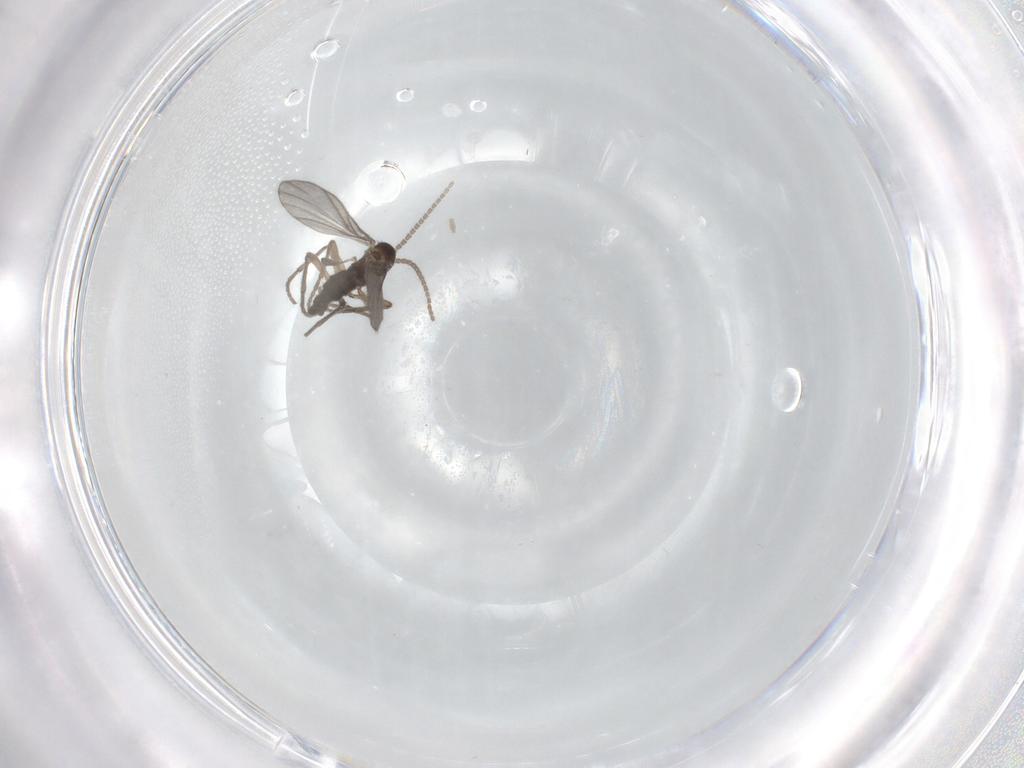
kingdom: Animalia
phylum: Arthropoda
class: Insecta
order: Diptera
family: Sciaridae
